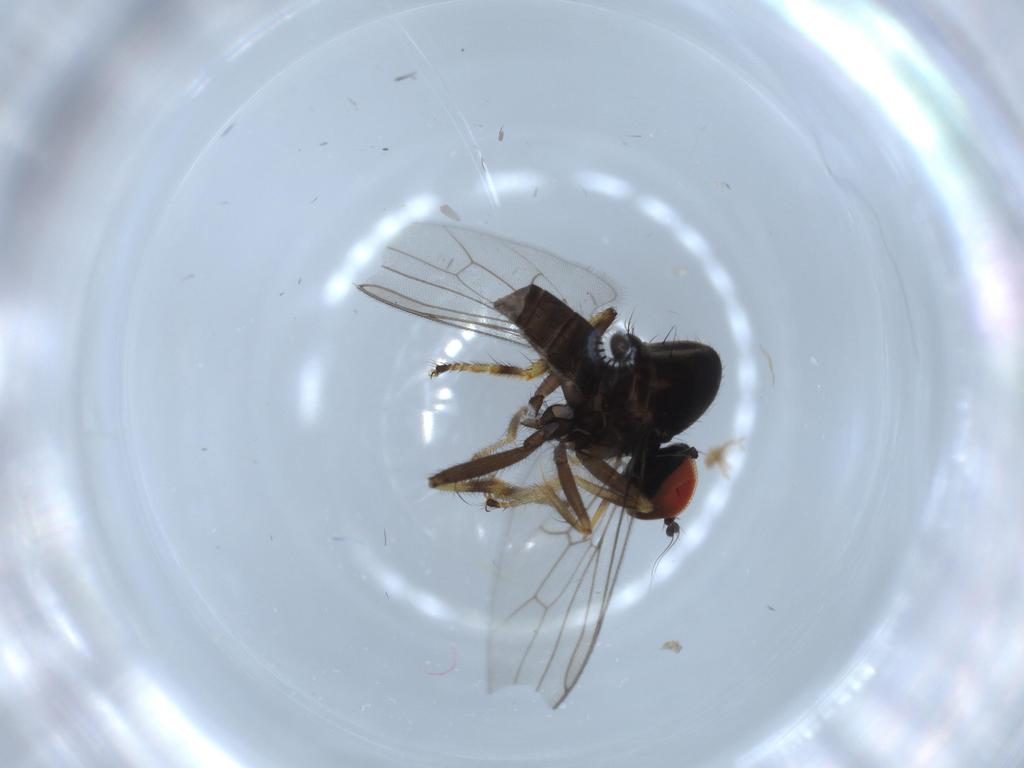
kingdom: Animalia
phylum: Arthropoda
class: Insecta
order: Diptera
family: Hybotidae
